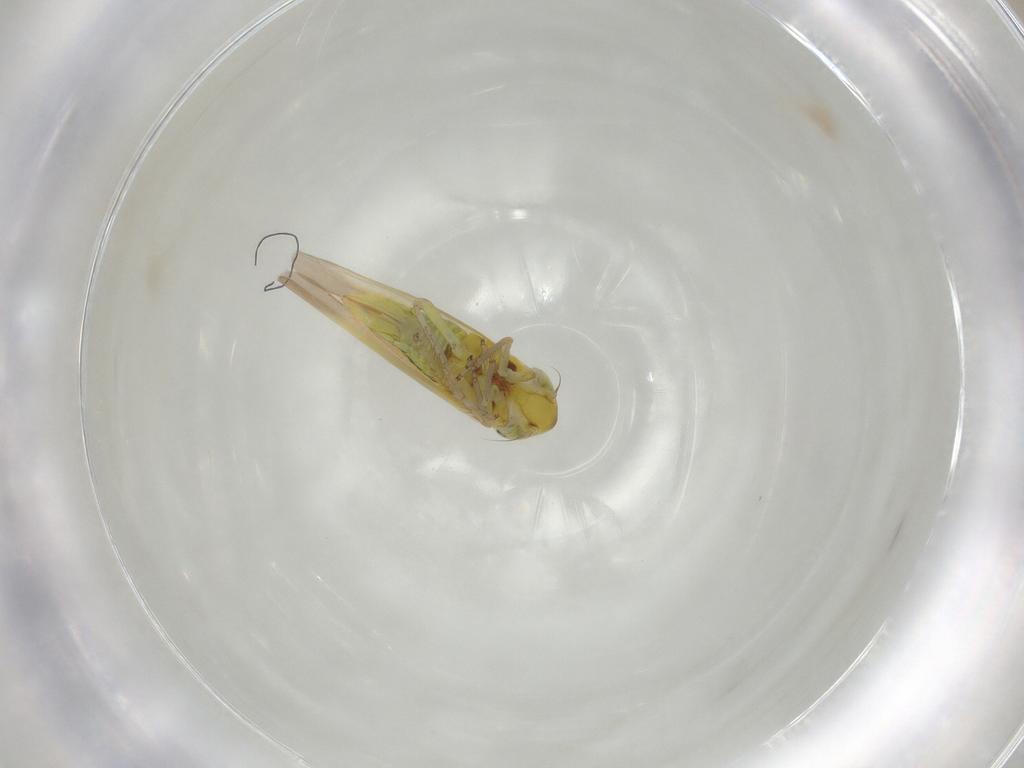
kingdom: Animalia
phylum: Arthropoda
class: Insecta
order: Hemiptera
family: Cicadellidae
